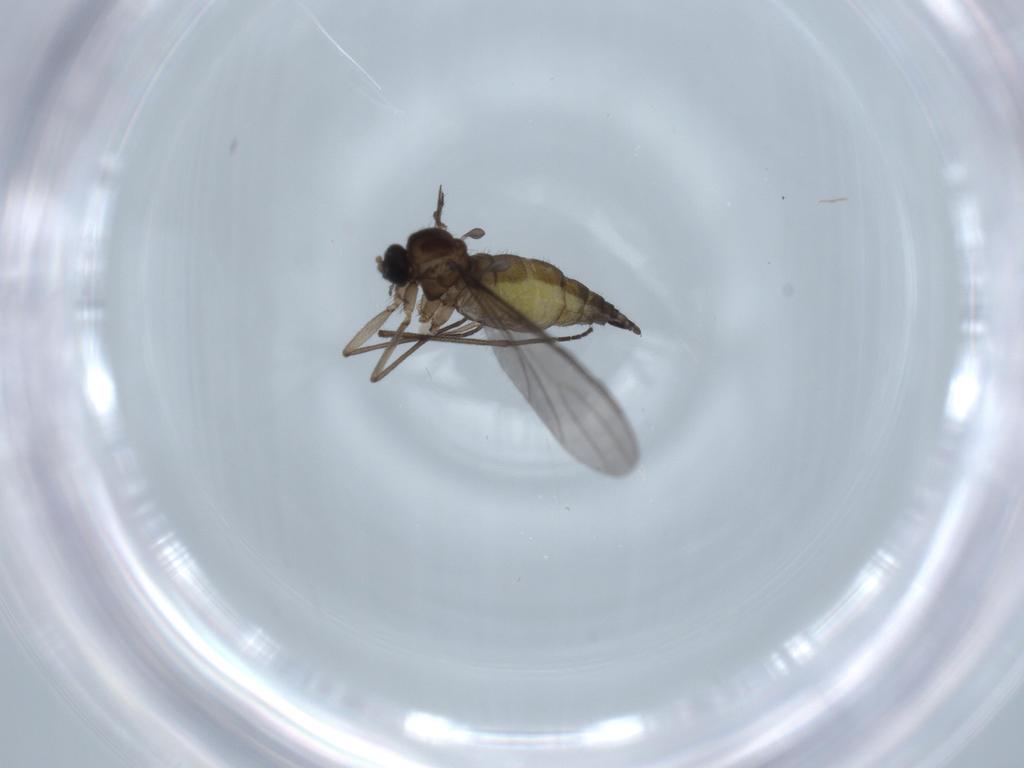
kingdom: Animalia
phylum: Arthropoda
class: Insecta
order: Diptera
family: Sciaridae
